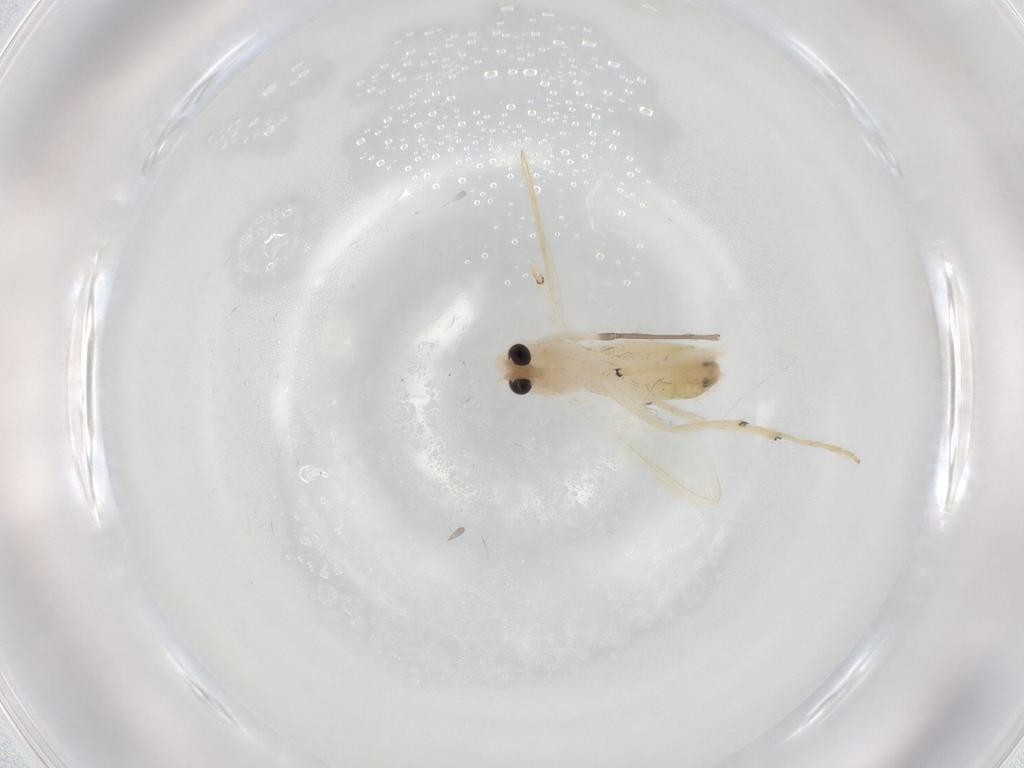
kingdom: Animalia
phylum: Arthropoda
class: Insecta
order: Diptera
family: Chironomidae
